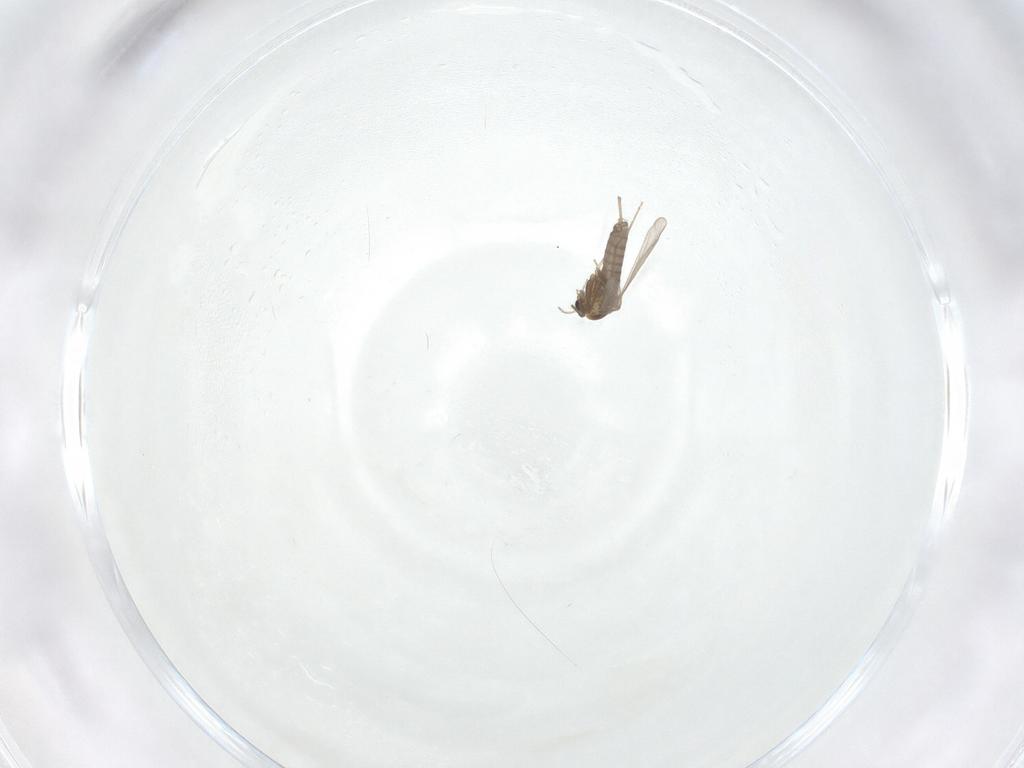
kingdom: Animalia
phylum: Arthropoda
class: Insecta
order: Diptera
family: Chironomidae
